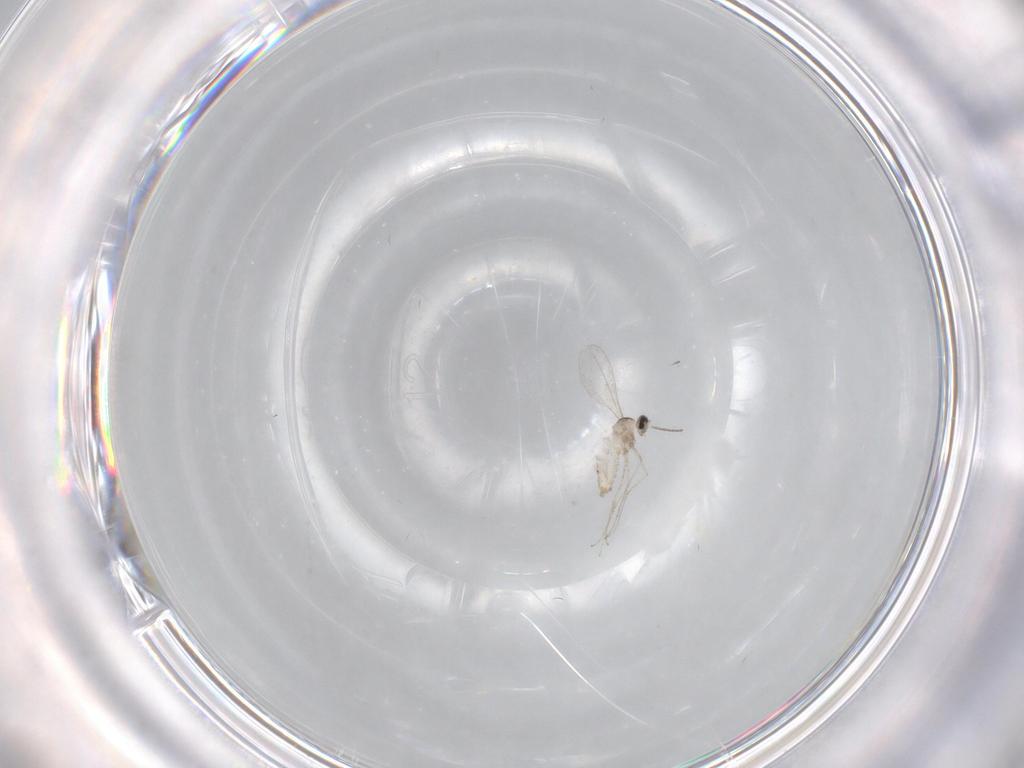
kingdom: Animalia
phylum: Arthropoda
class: Insecta
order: Diptera
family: Cecidomyiidae
